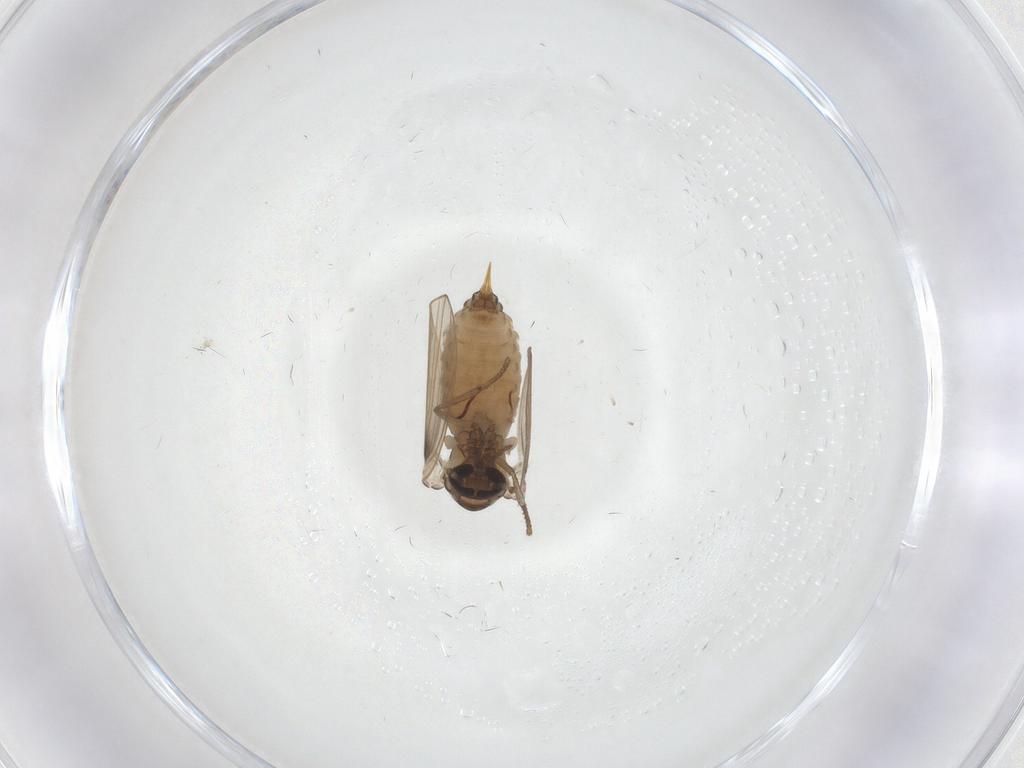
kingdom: Animalia
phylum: Arthropoda
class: Insecta
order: Diptera
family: Psychodidae
